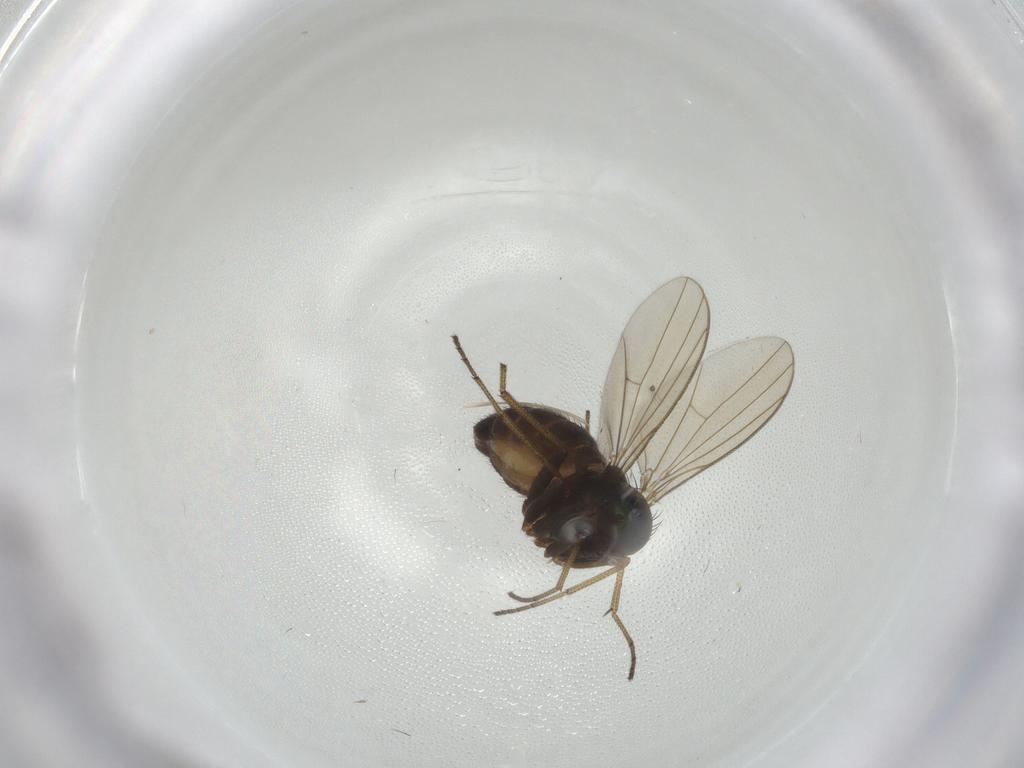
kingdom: Animalia
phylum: Arthropoda
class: Insecta
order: Diptera
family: Dolichopodidae
